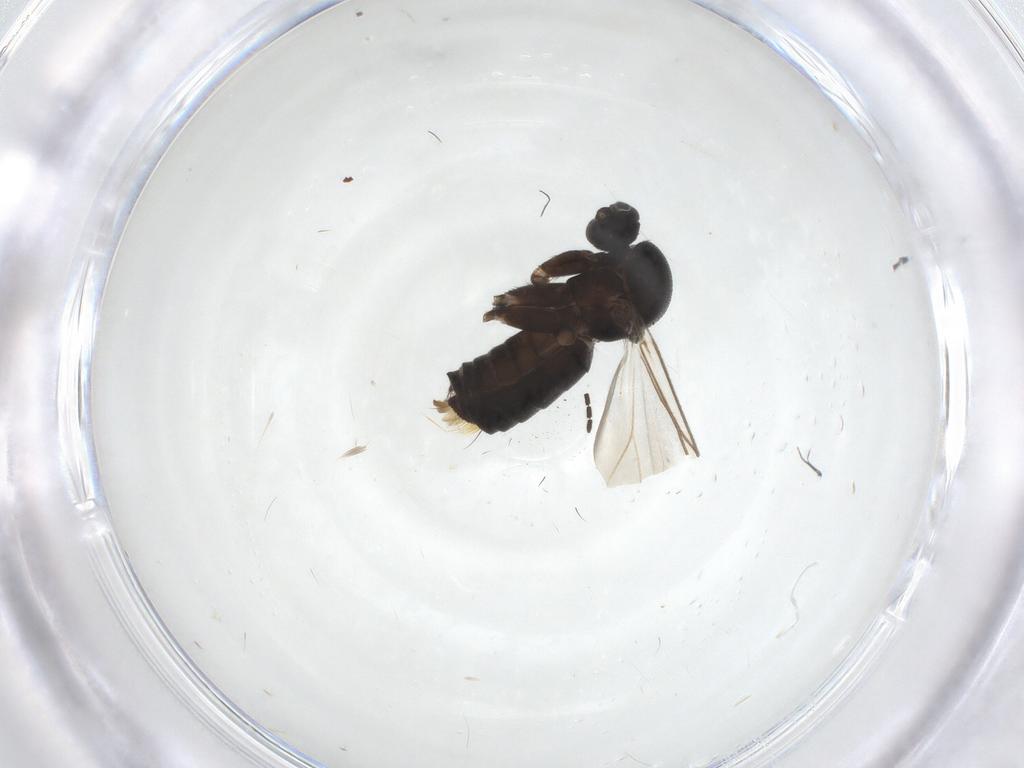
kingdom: Animalia
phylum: Arthropoda
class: Insecta
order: Diptera
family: Mycetophilidae
